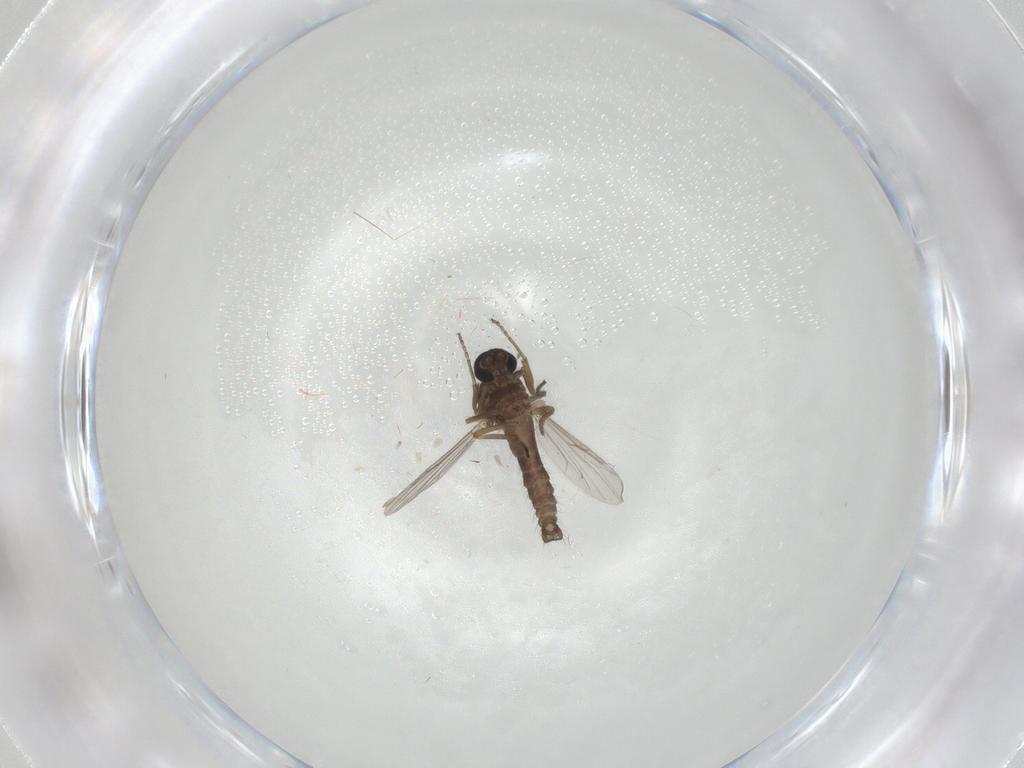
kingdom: Animalia
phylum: Arthropoda
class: Insecta
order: Diptera
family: Ceratopogonidae
